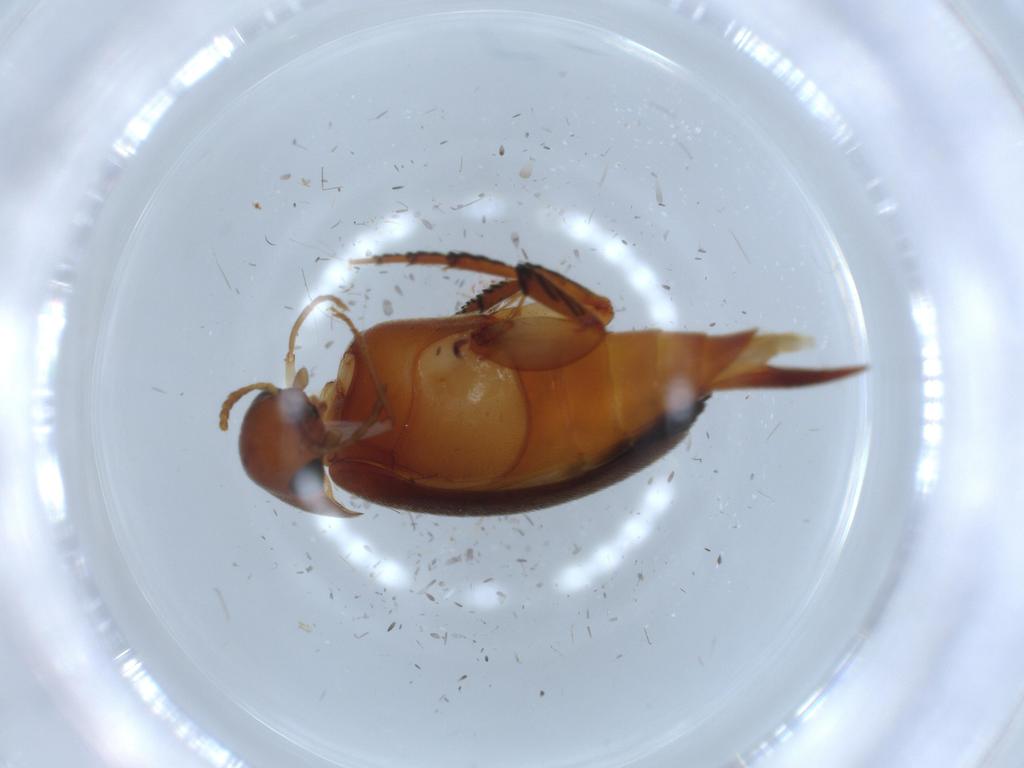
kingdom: Animalia
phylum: Arthropoda
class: Insecta
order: Coleoptera
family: Mordellidae
